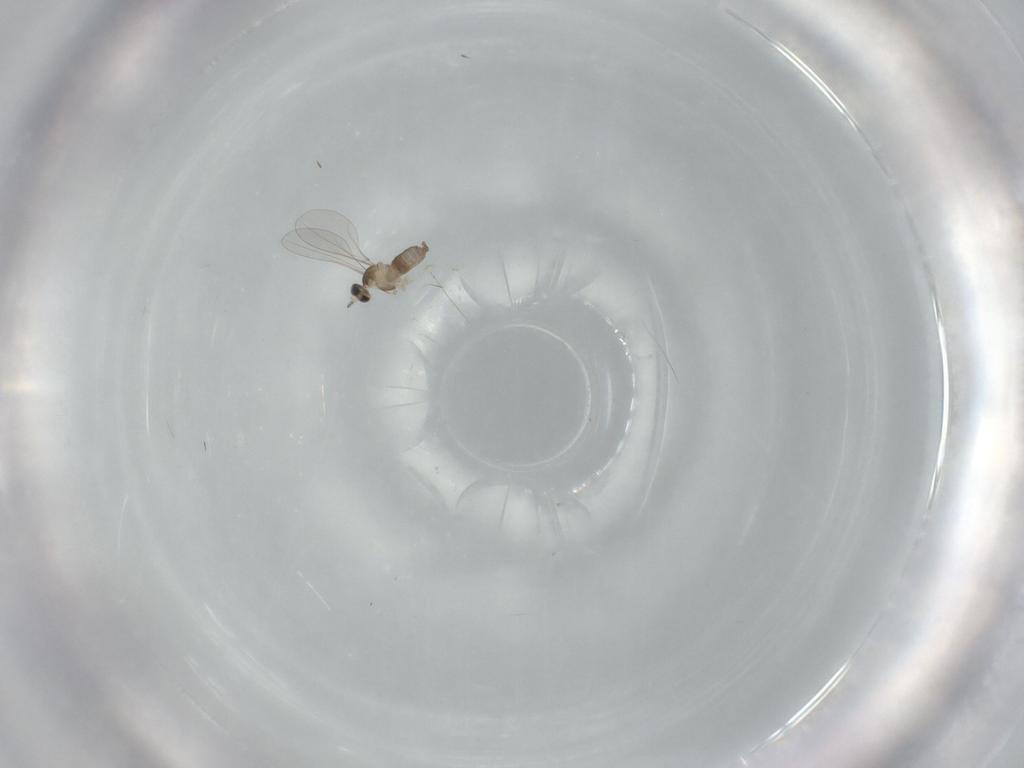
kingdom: Animalia
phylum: Arthropoda
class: Insecta
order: Diptera
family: Cecidomyiidae
